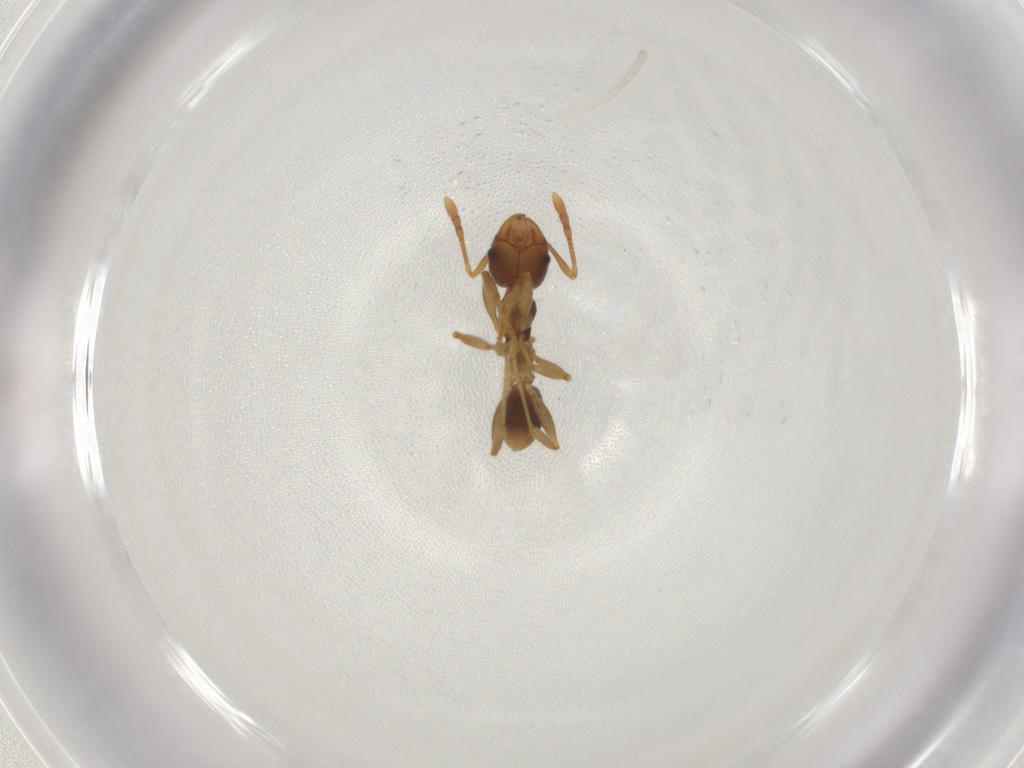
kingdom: Animalia
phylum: Arthropoda
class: Insecta
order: Hymenoptera
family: Formicidae
